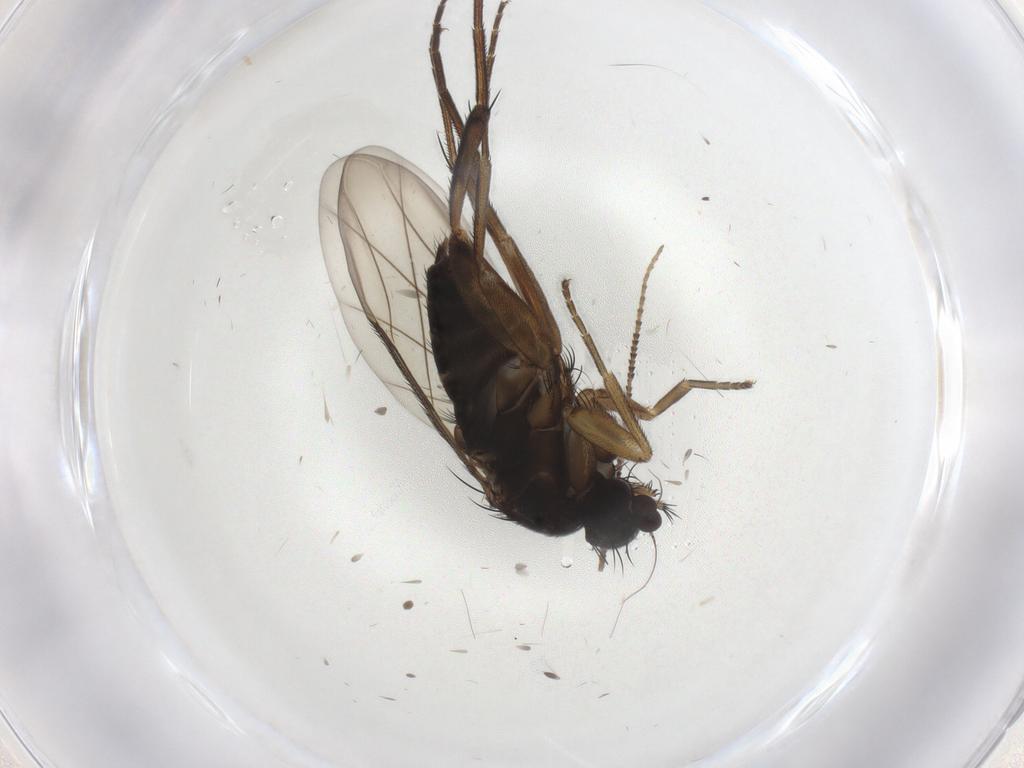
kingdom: Animalia
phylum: Arthropoda
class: Insecta
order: Diptera
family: Phoridae
